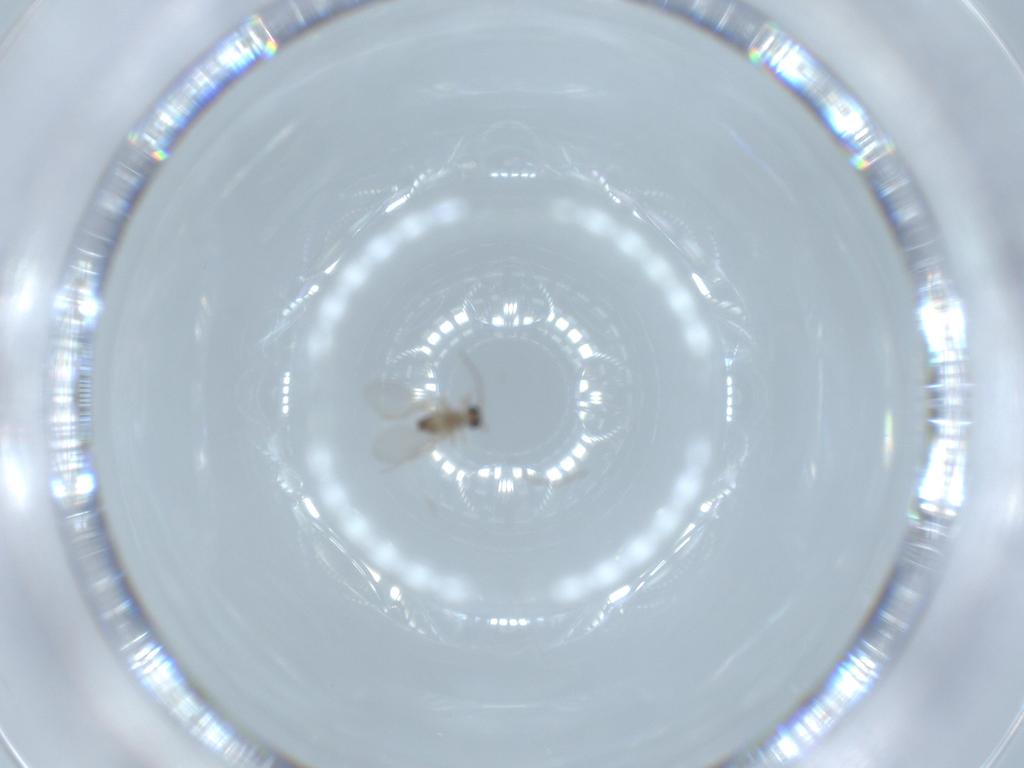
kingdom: Animalia
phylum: Arthropoda
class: Insecta
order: Diptera
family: Cecidomyiidae
